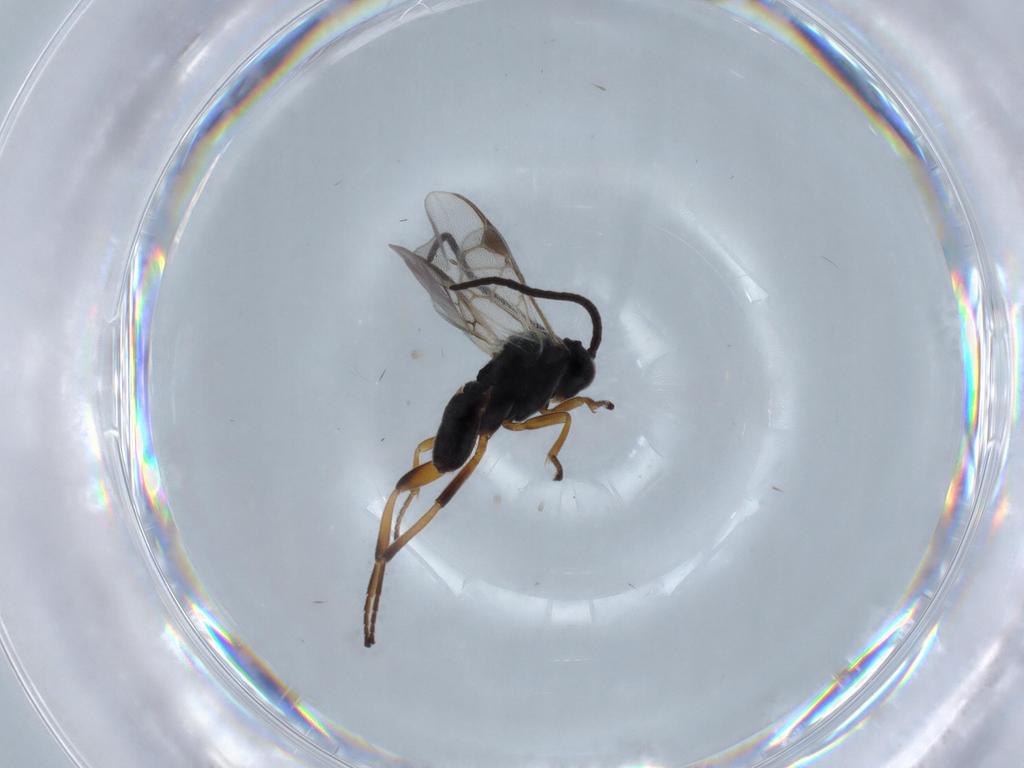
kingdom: Animalia
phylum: Arthropoda
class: Insecta
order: Hymenoptera
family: Braconidae
